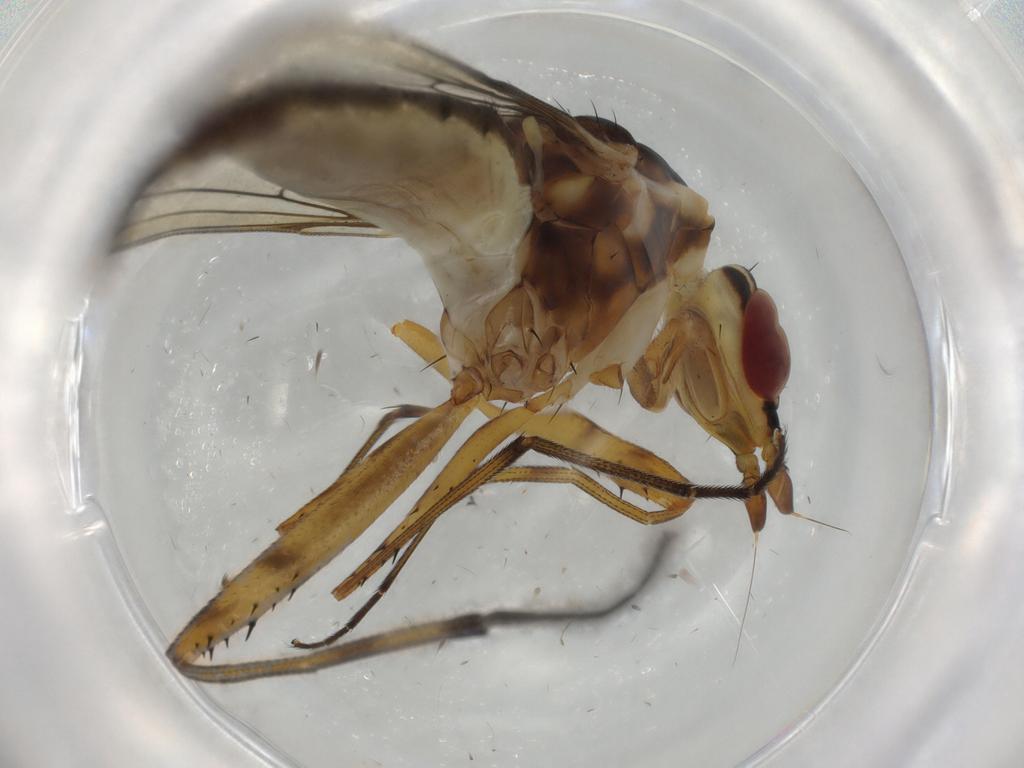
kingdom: Animalia
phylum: Arthropoda
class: Insecta
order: Diptera
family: Neriidae
